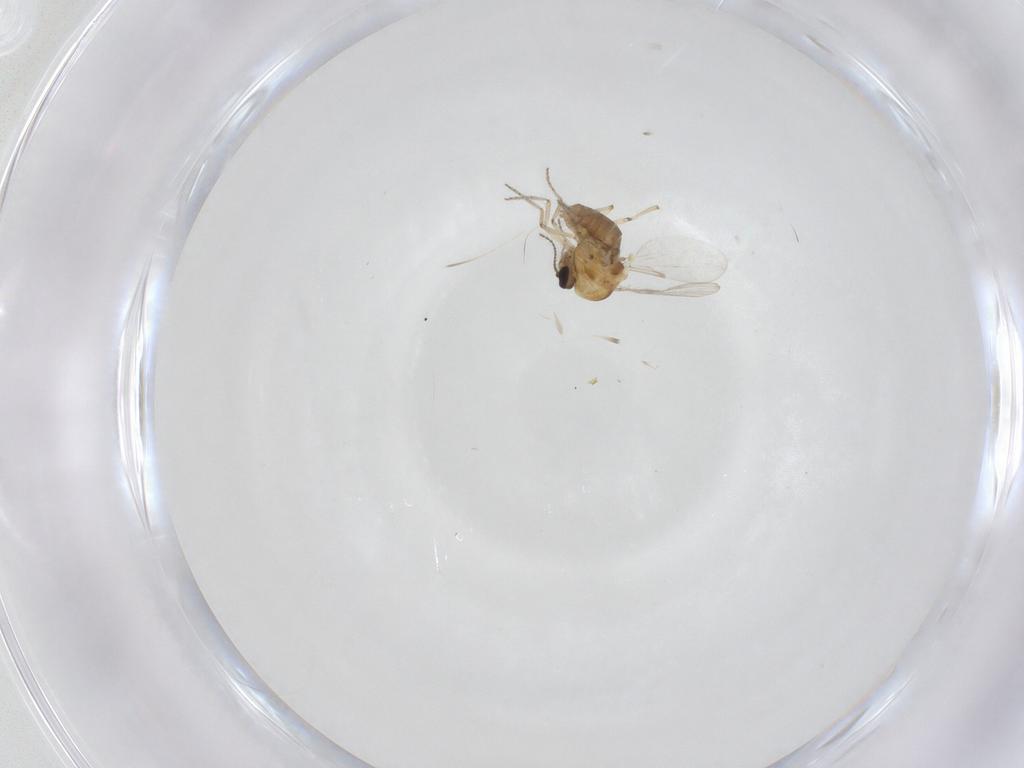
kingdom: Animalia
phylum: Arthropoda
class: Insecta
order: Diptera
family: Ceratopogonidae
